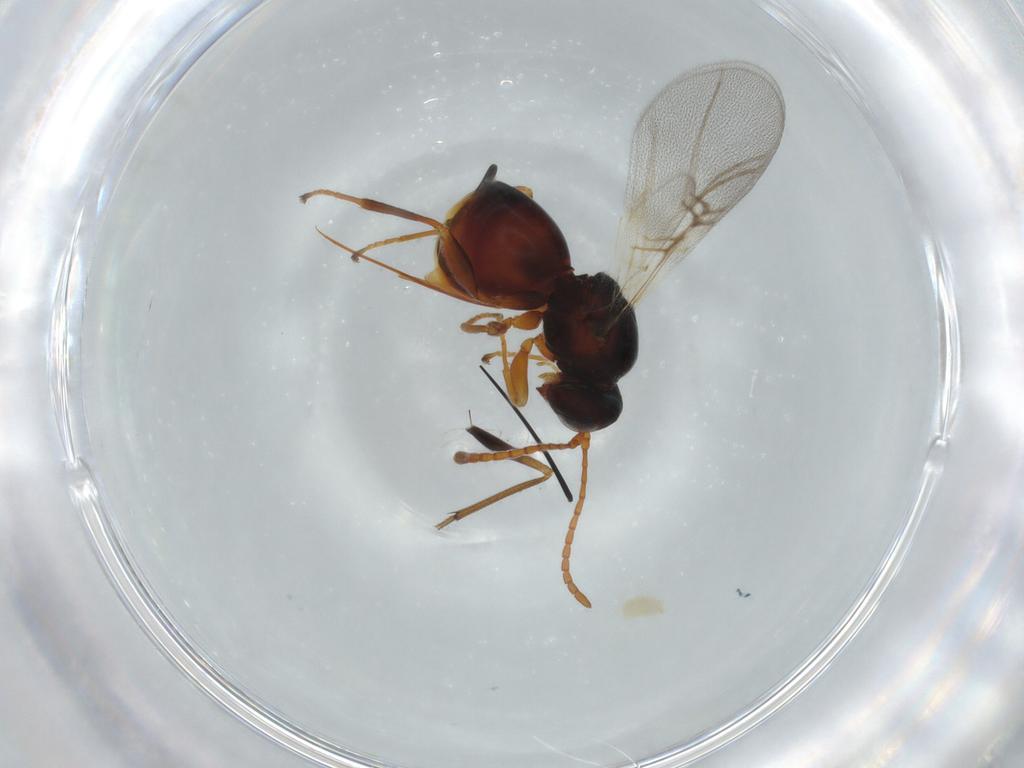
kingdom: Animalia
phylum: Arthropoda
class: Insecta
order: Hymenoptera
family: Cynipidae
